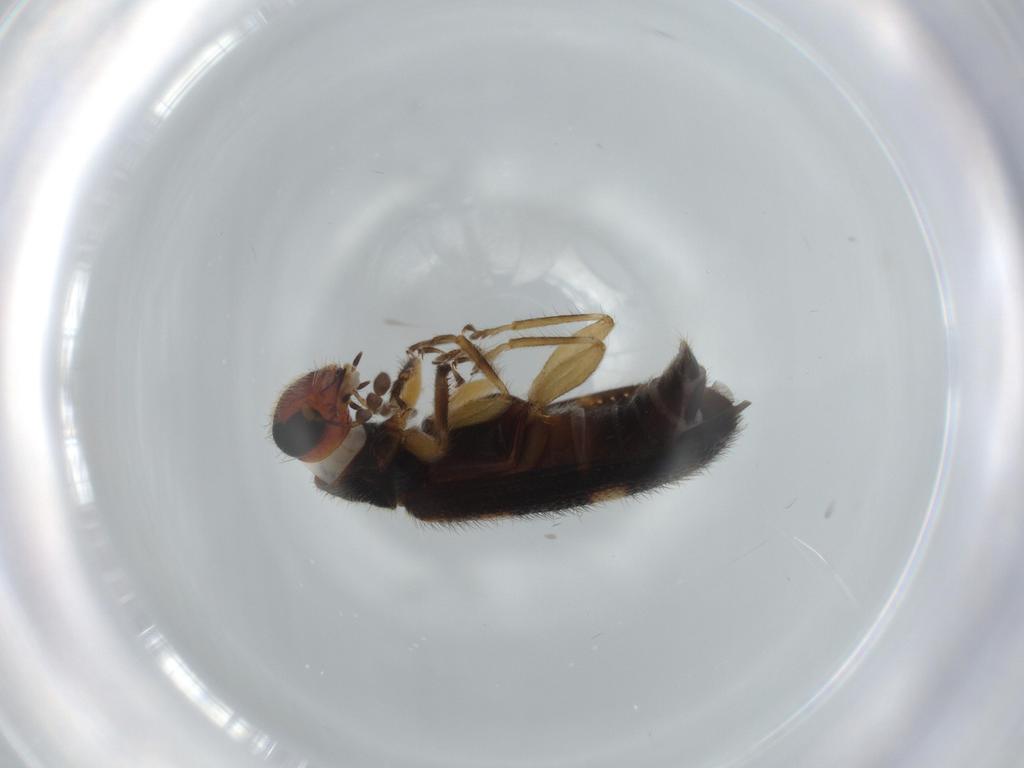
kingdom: Animalia
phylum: Arthropoda
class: Insecta
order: Coleoptera
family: Cleridae
